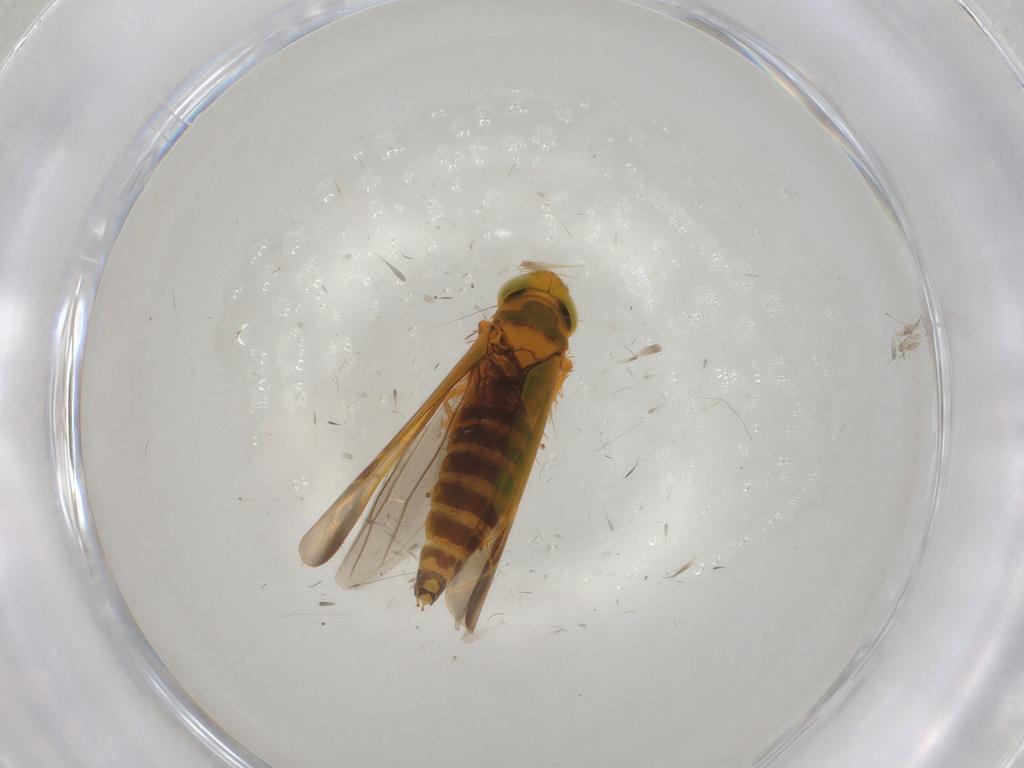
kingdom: Animalia
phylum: Arthropoda
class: Insecta
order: Hemiptera
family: Cicadellidae
